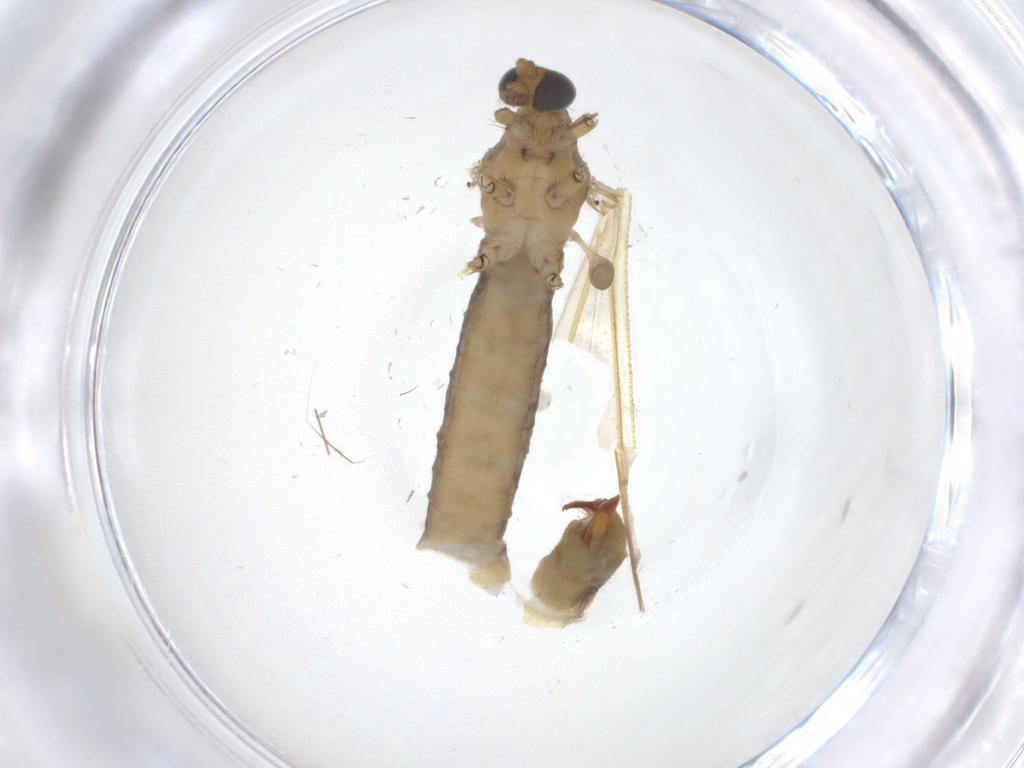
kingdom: Animalia
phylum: Arthropoda
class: Insecta
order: Diptera
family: Limoniidae
